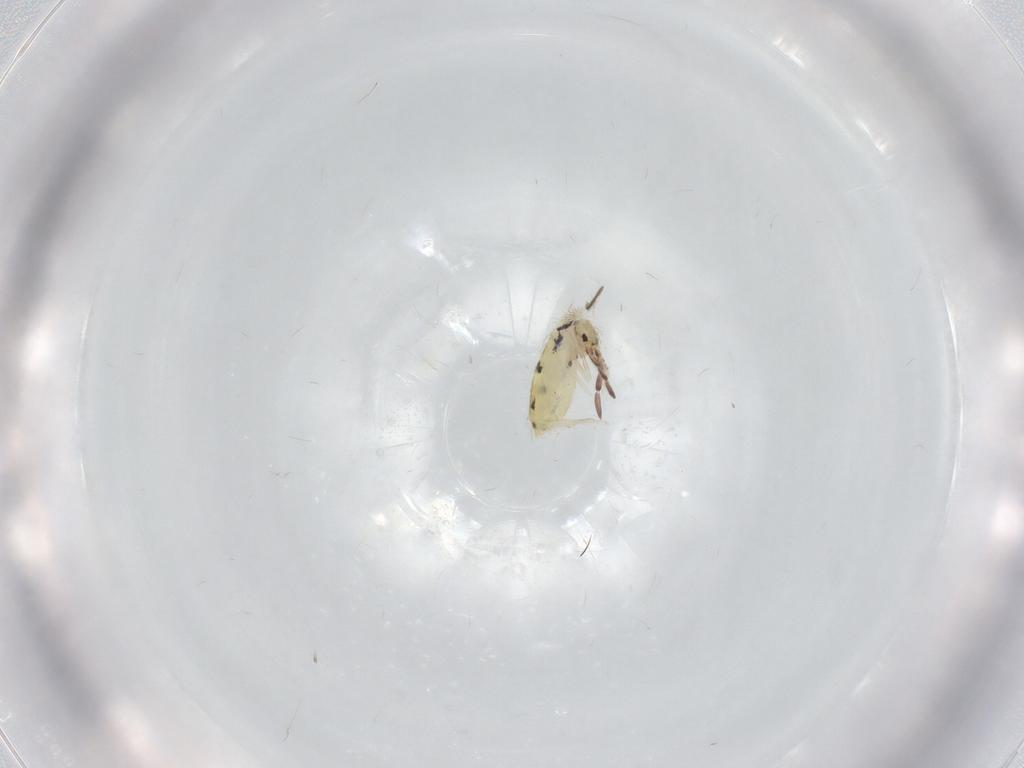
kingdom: Animalia
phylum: Arthropoda
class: Collembola
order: Entomobryomorpha
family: Entomobryidae
